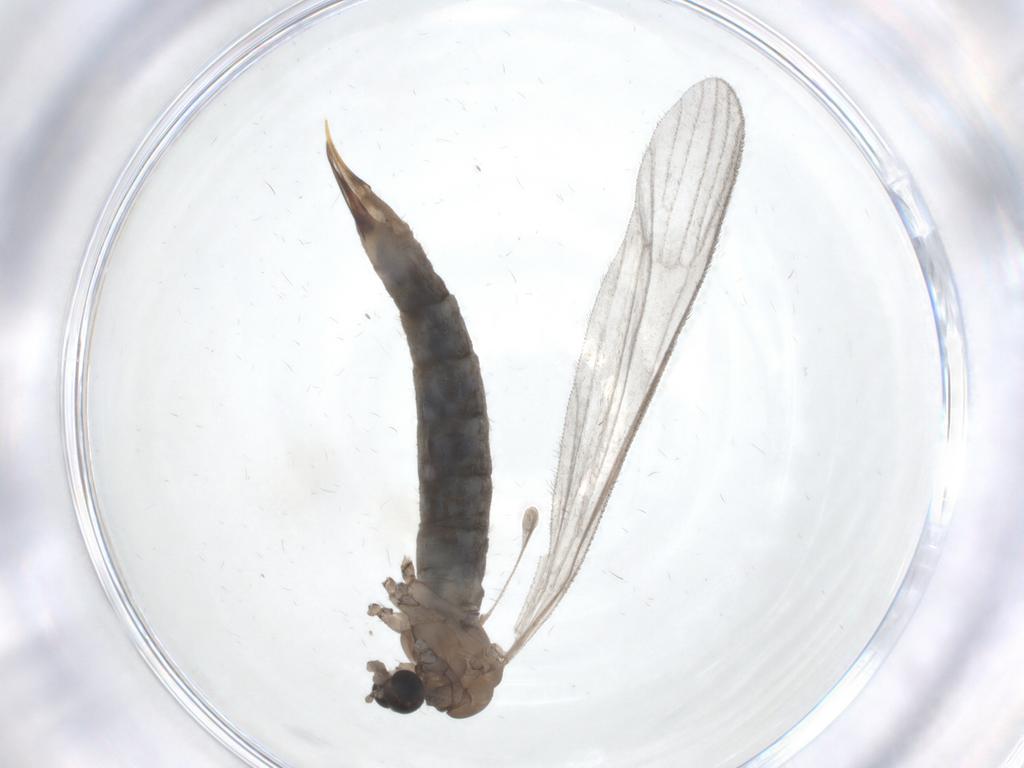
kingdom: Animalia
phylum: Arthropoda
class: Insecta
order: Diptera
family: Limoniidae
